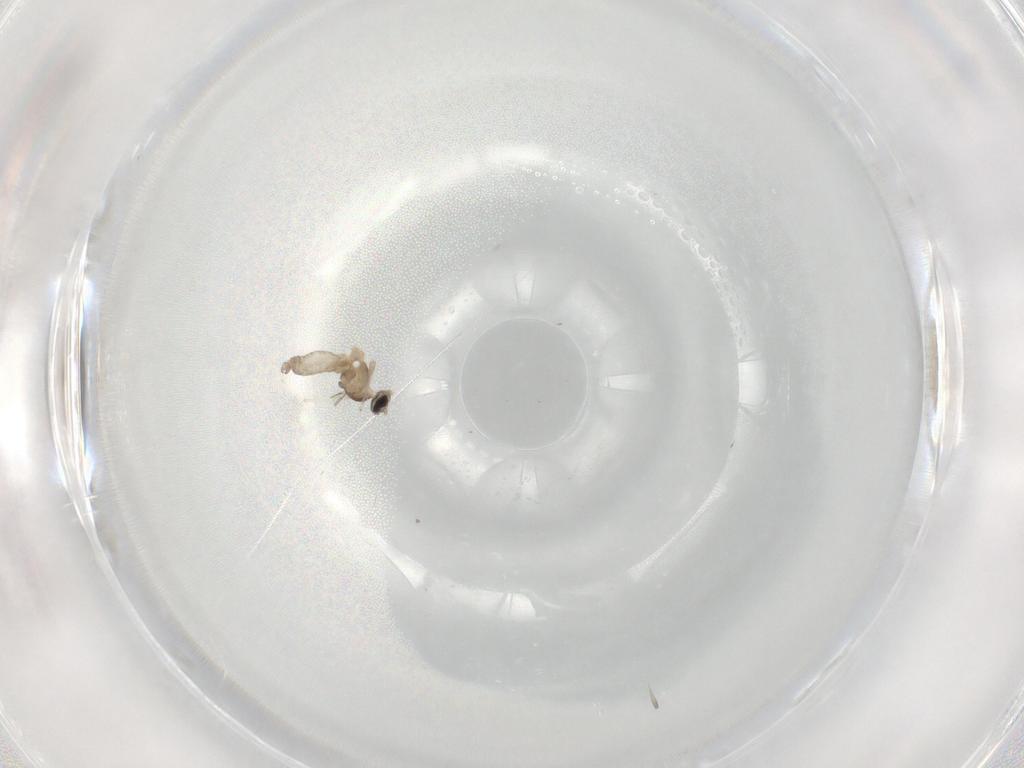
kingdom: Animalia
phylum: Arthropoda
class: Insecta
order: Diptera
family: Cecidomyiidae
